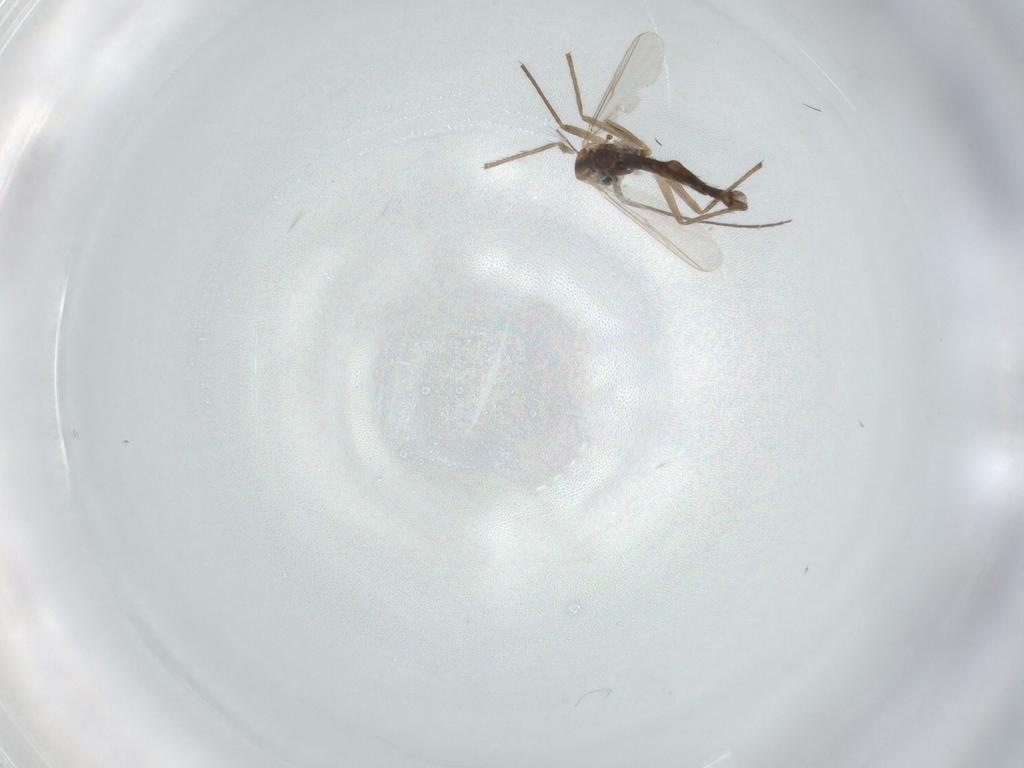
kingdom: Animalia
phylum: Arthropoda
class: Insecta
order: Diptera
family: Chironomidae
